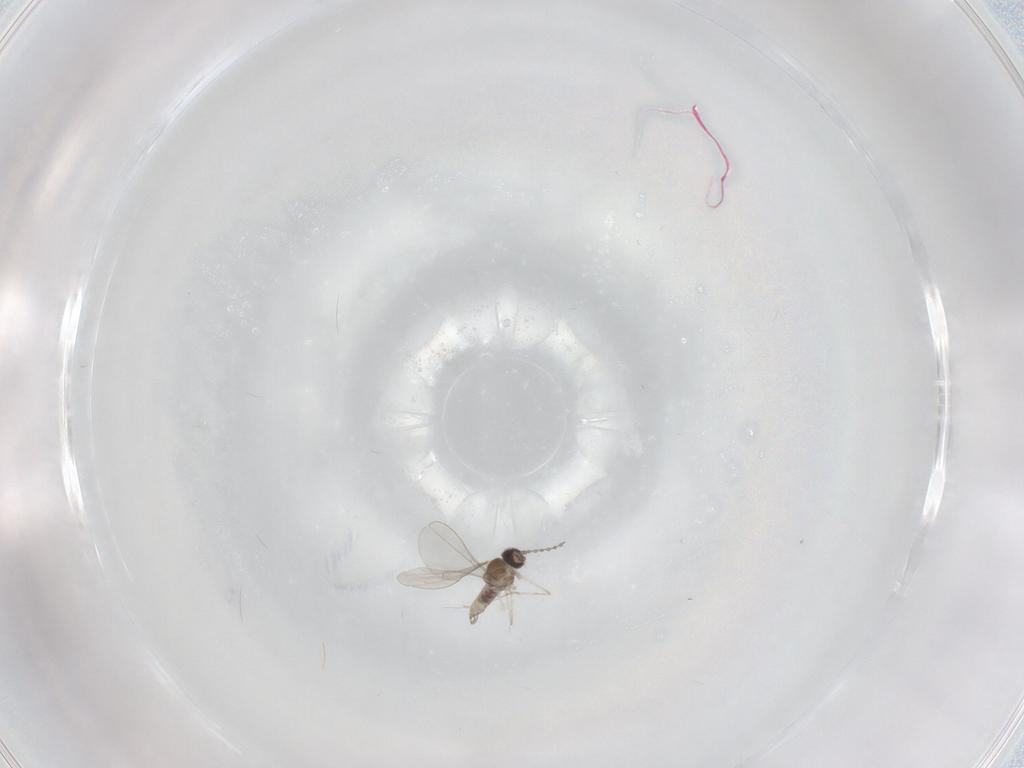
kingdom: Animalia
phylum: Arthropoda
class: Insecta
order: Diptera
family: Cecidomyiidae
